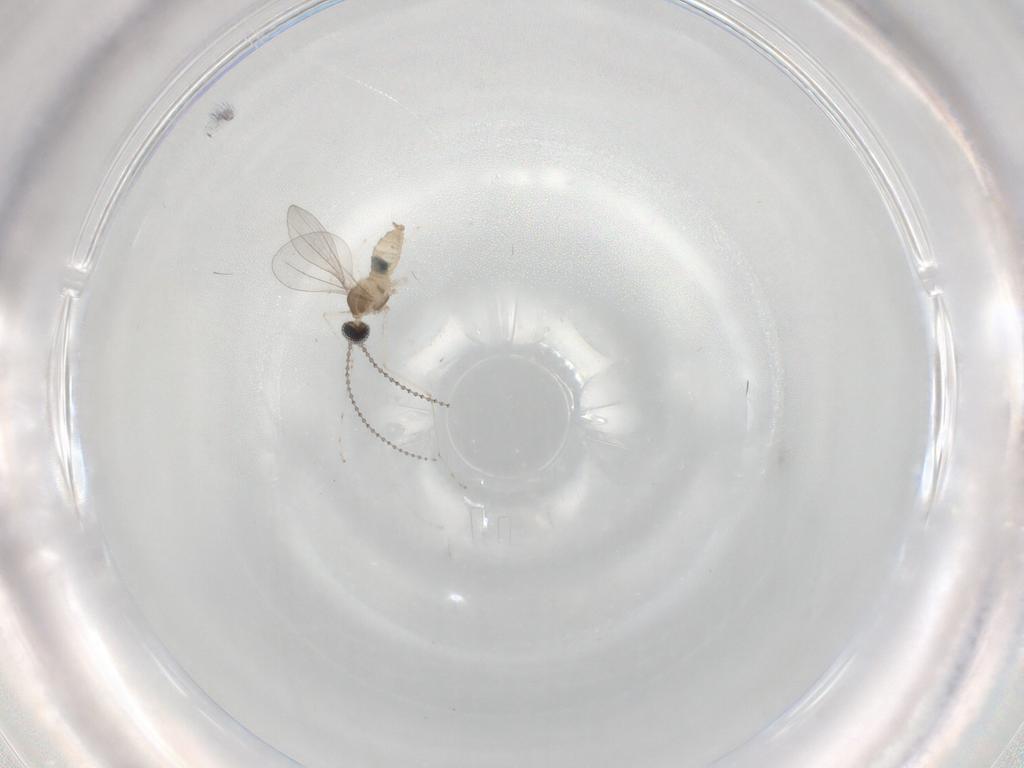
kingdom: Animalia
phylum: Arthropoda
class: Insecta
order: Diptera
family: Cecidomyiidae
